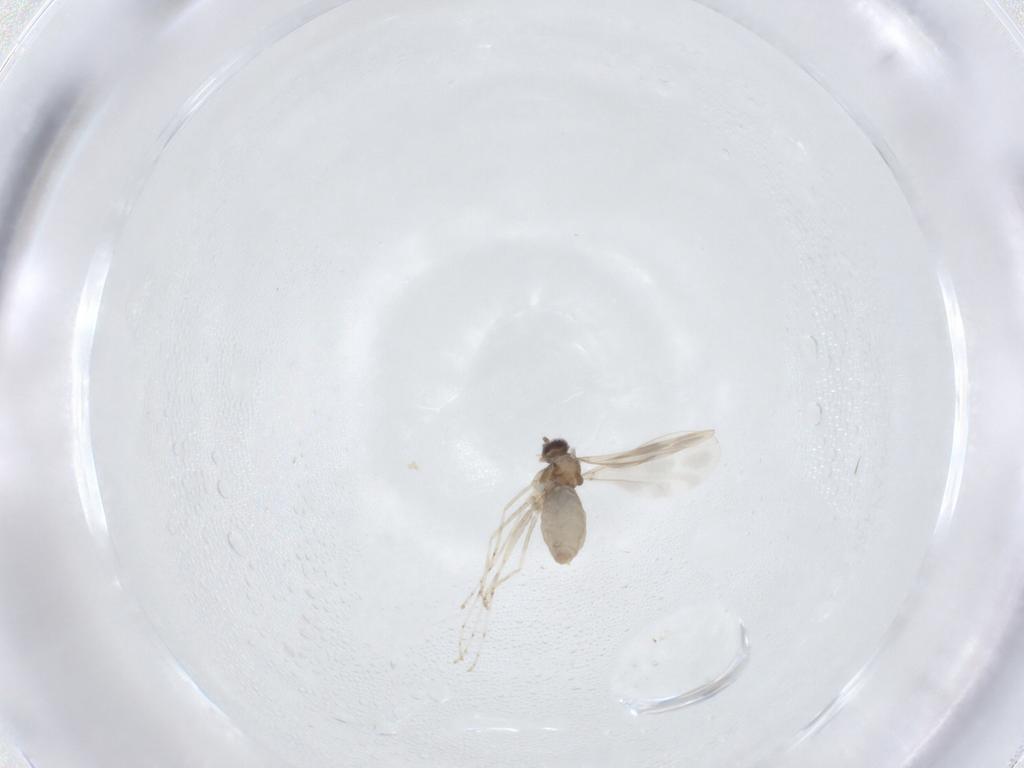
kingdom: Animalia
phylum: Arthropoda
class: Insecta
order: Diptera
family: Cecidomyiidae
